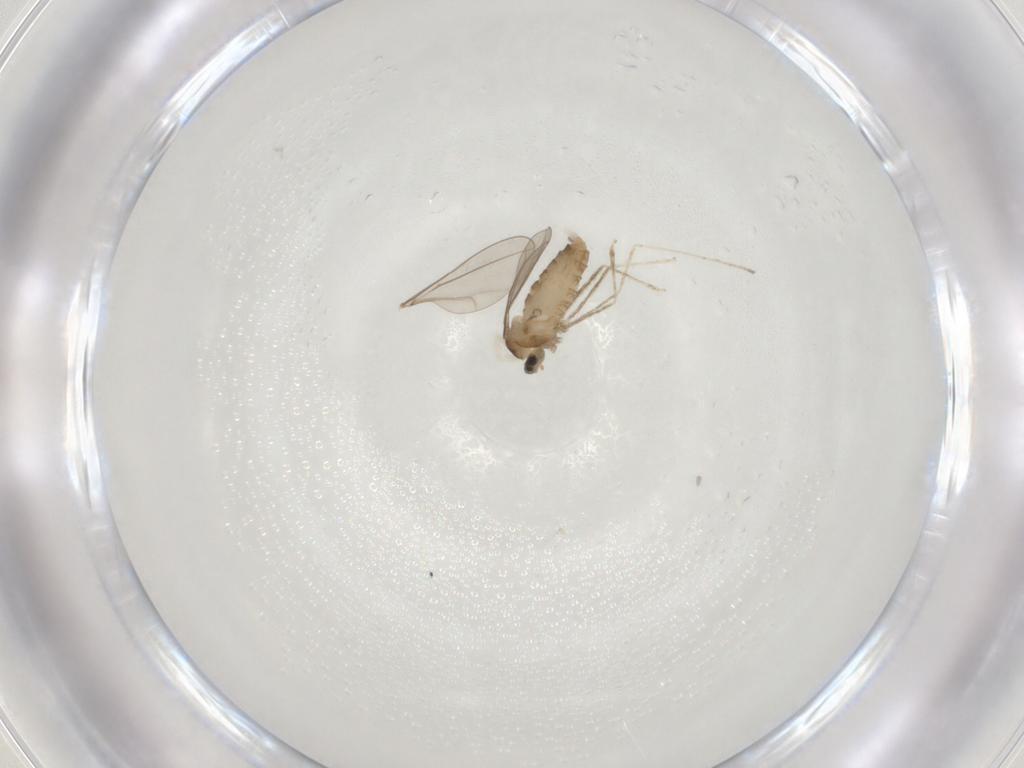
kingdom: Animalia
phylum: Arthropoda
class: Insecta
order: Diptera
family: Cecidomyiidae
